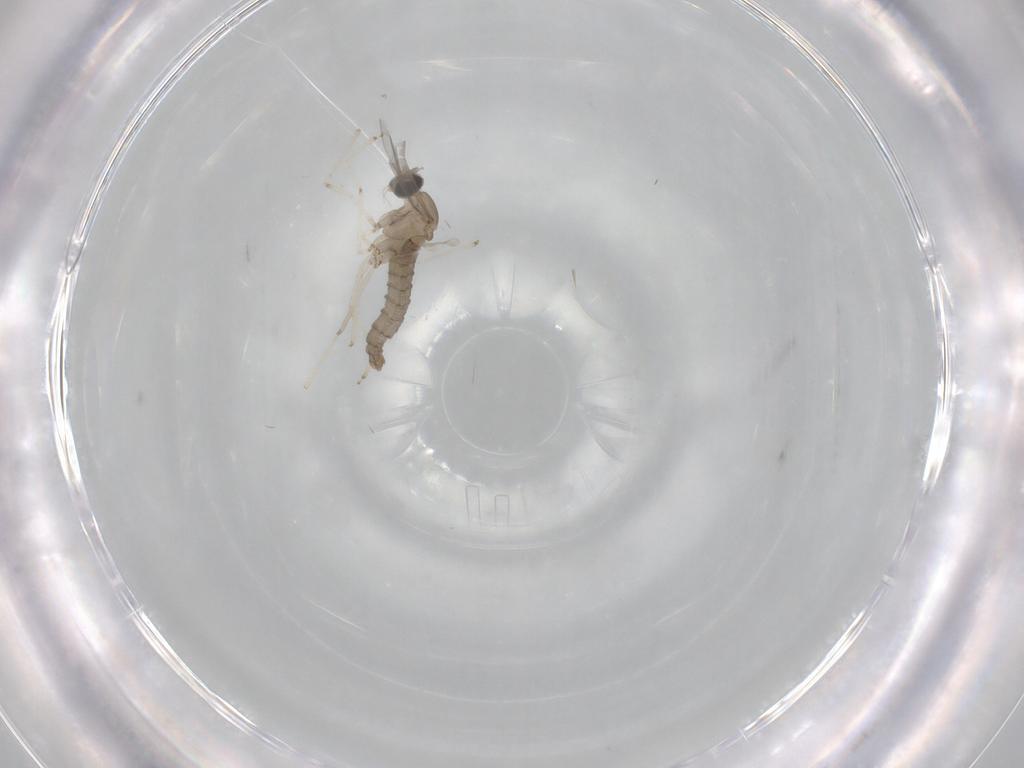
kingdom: Animalia
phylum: Arthropoda
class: Insecta
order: Diptera
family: Cecidomyiidae
